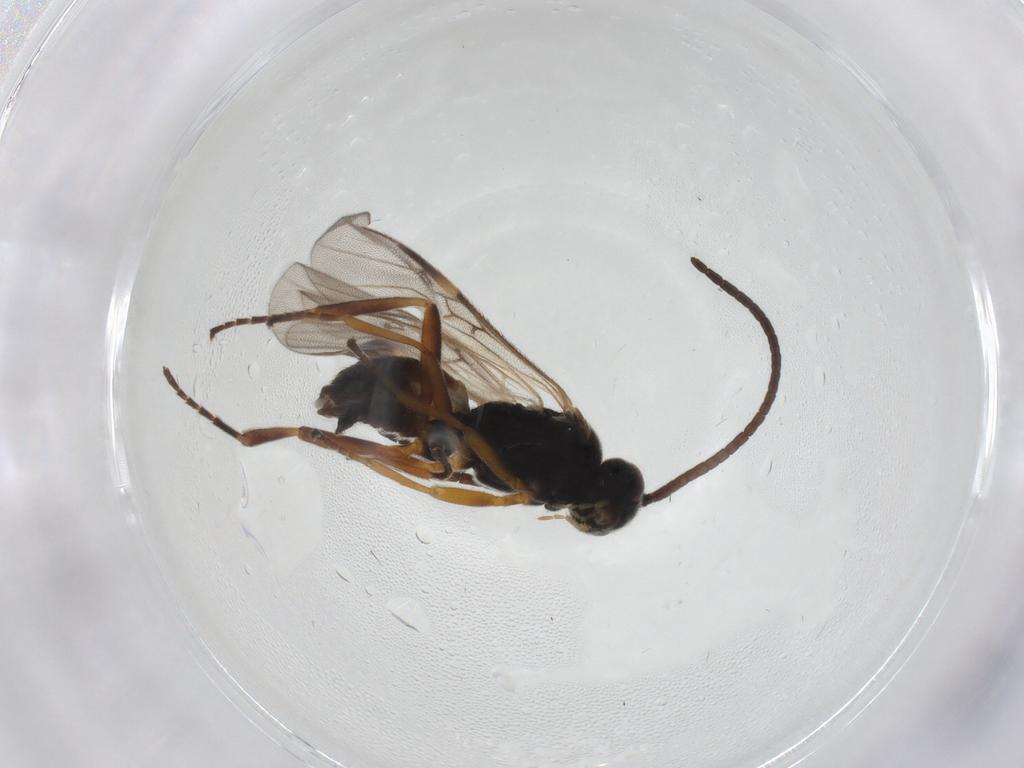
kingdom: Animalia
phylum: Arthropoda
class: Insecta
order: Hymenoptera
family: Braconidae
